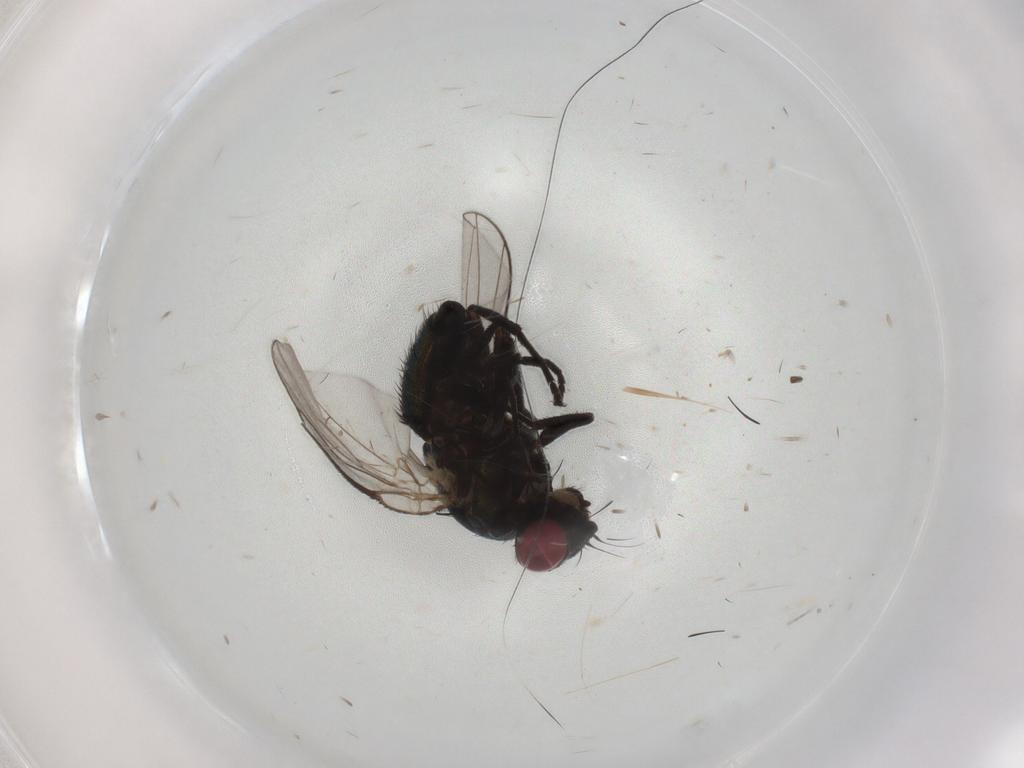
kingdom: Animalia
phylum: Arthropoda
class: Insecta
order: Diptera
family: Agromyzidae
